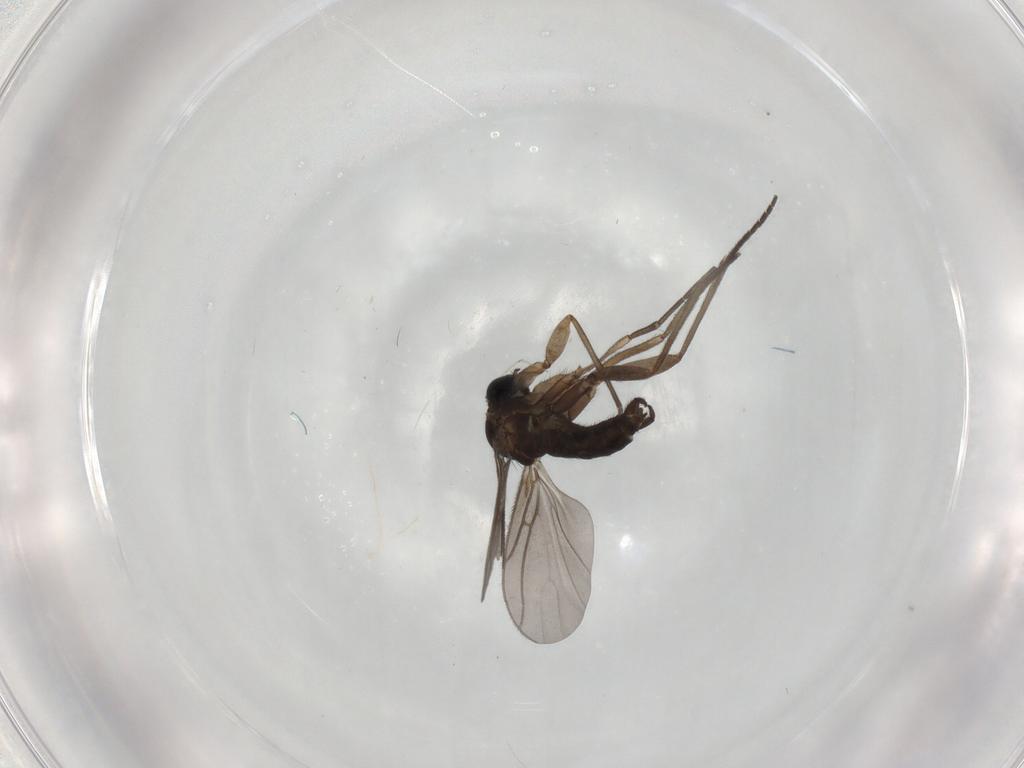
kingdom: Animalia
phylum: Arthropoda
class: Insecta
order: Diptera
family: Sciaridae
